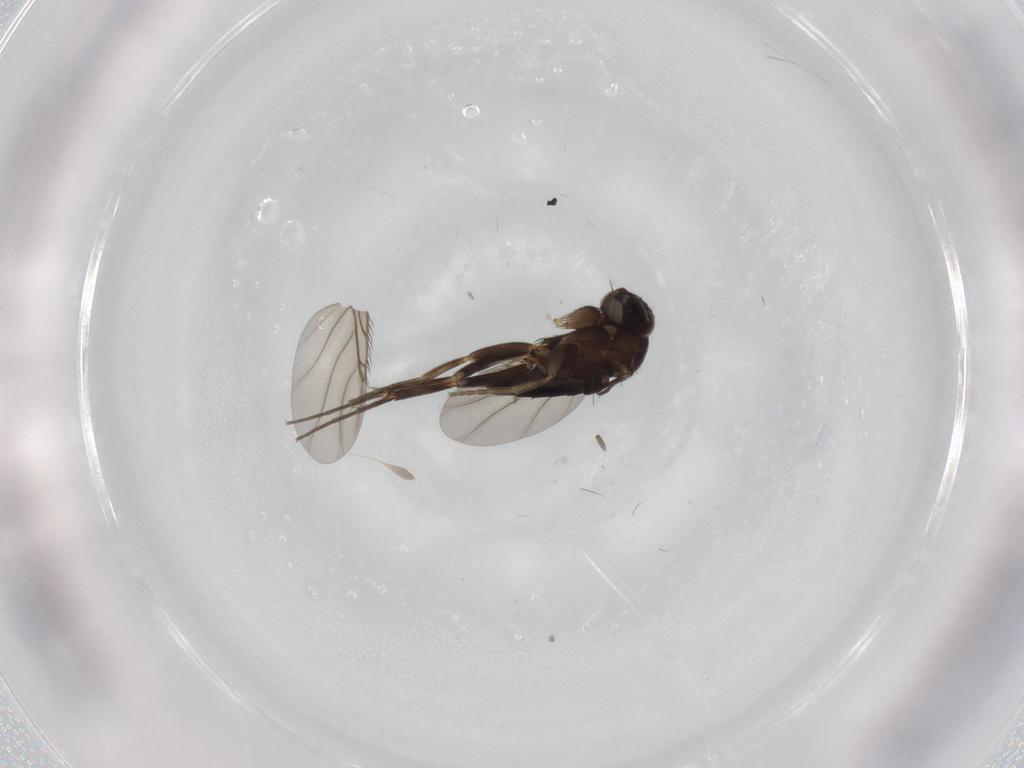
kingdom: Animalia
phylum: Arthropoda
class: Insecta
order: Diptera
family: Phoridae
